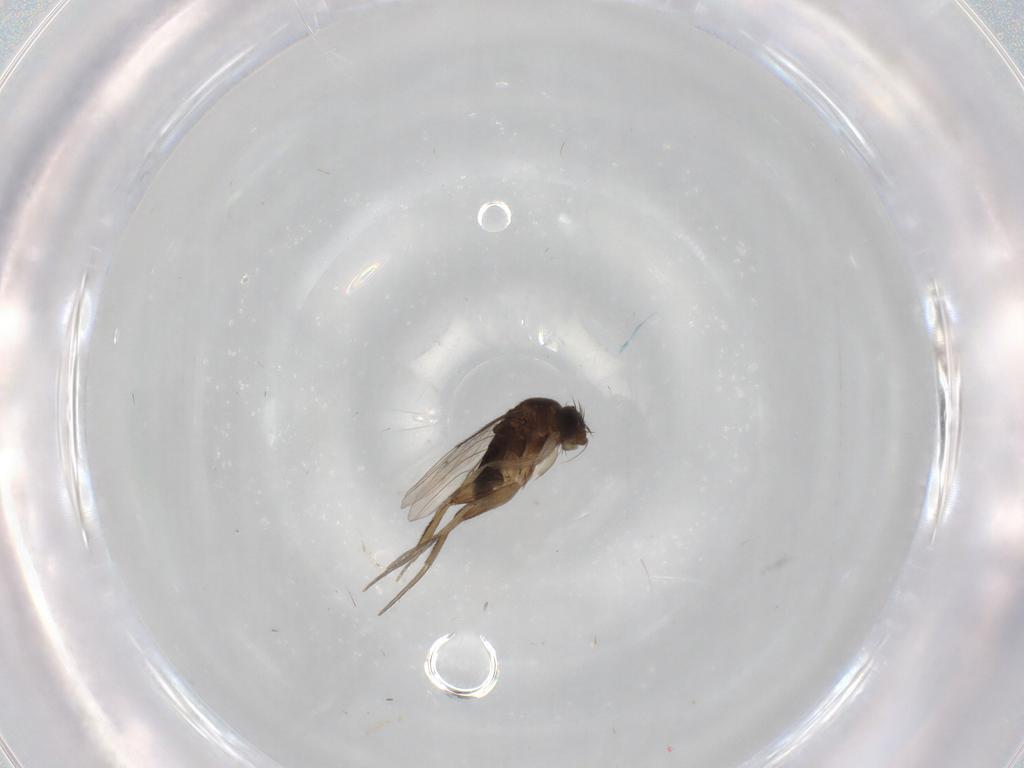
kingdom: Animalia
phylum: Arthropoda
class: Insecta
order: Diptera
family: Phoridae
